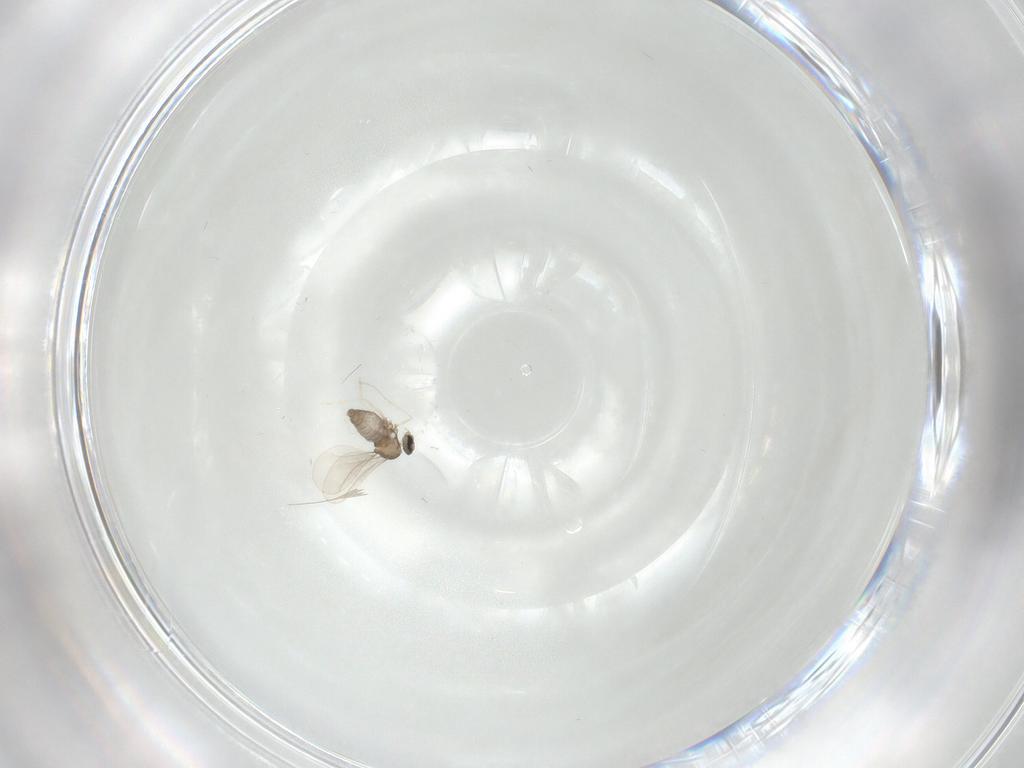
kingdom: Animalia
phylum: Arthropoda
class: Insecta
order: Diptera
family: Cecidomyiidae
